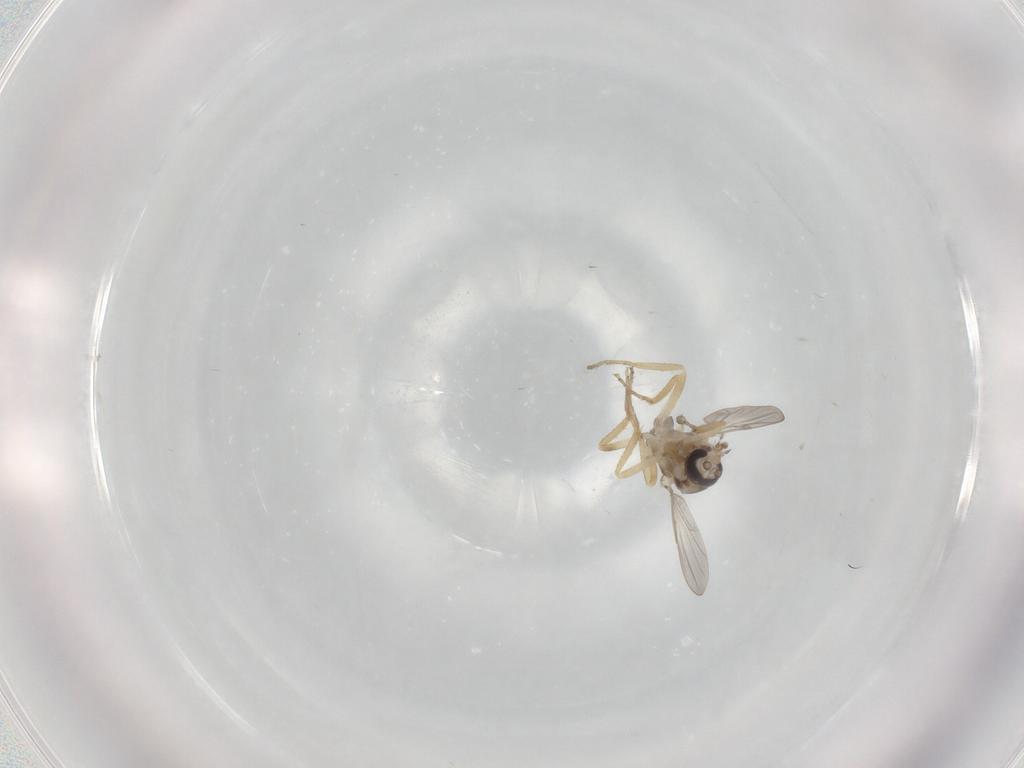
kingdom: Animalia
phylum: Arthropoda
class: Insecta
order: Diptera
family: Ceratopogonidae
